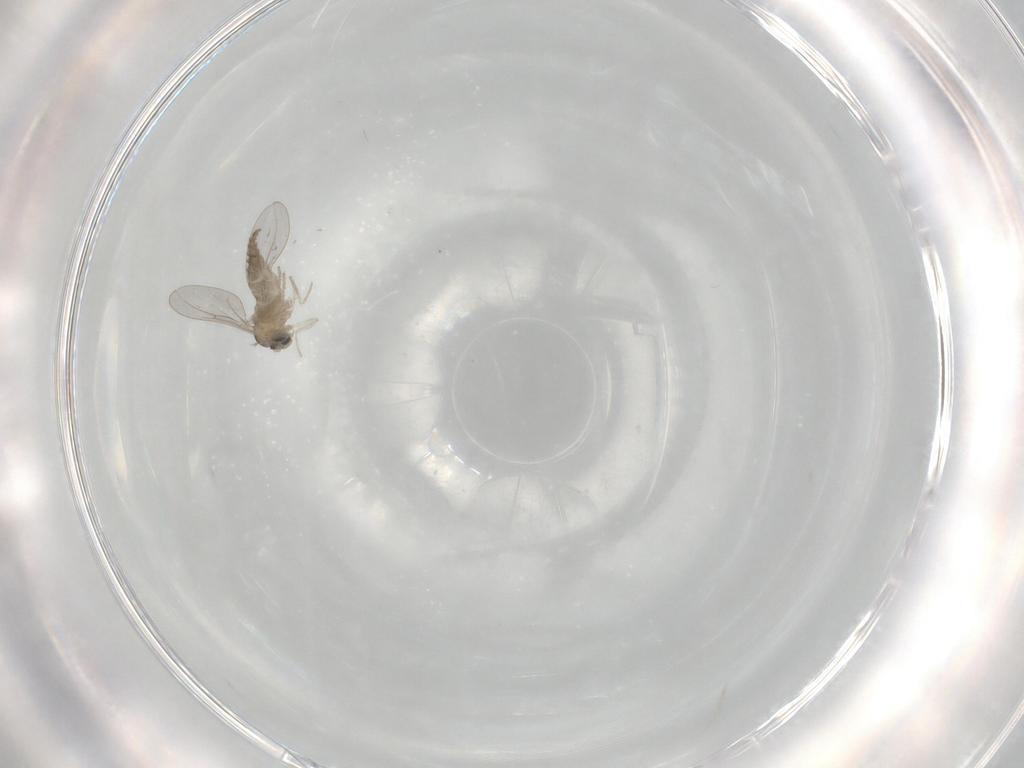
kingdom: Animalia
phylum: Arthropoda
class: Insecta
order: Diptera
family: Cecidomyiidae
